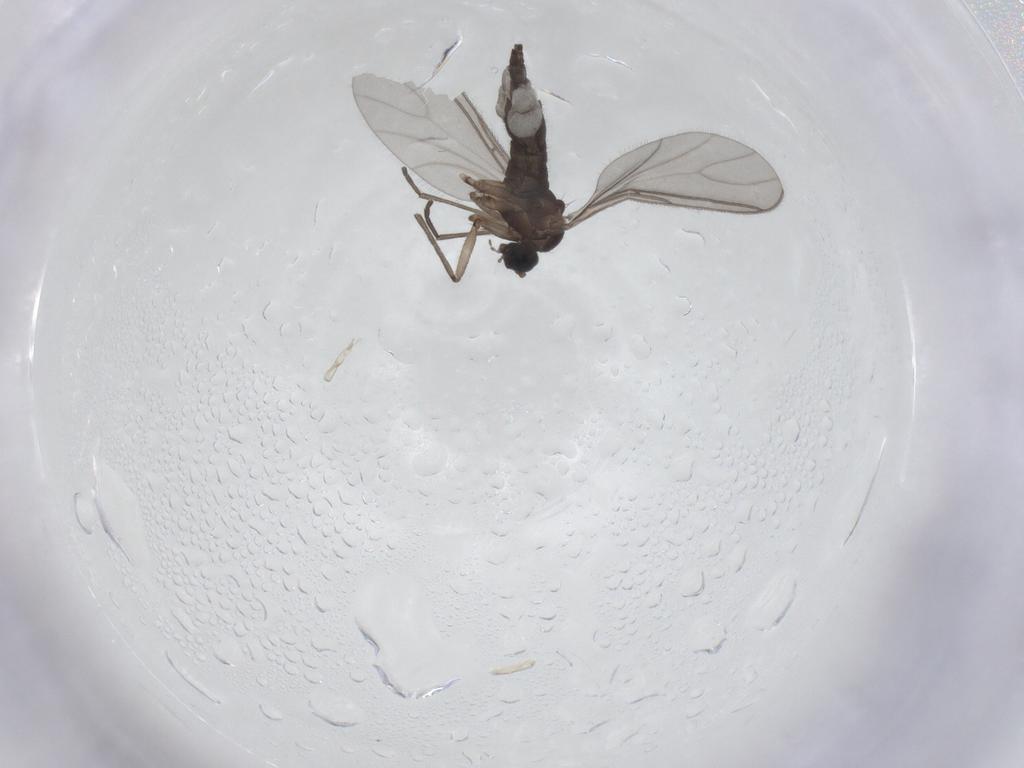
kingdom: Animalia
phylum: Arthropoda
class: Insecta
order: Diptera
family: Sciaridae
